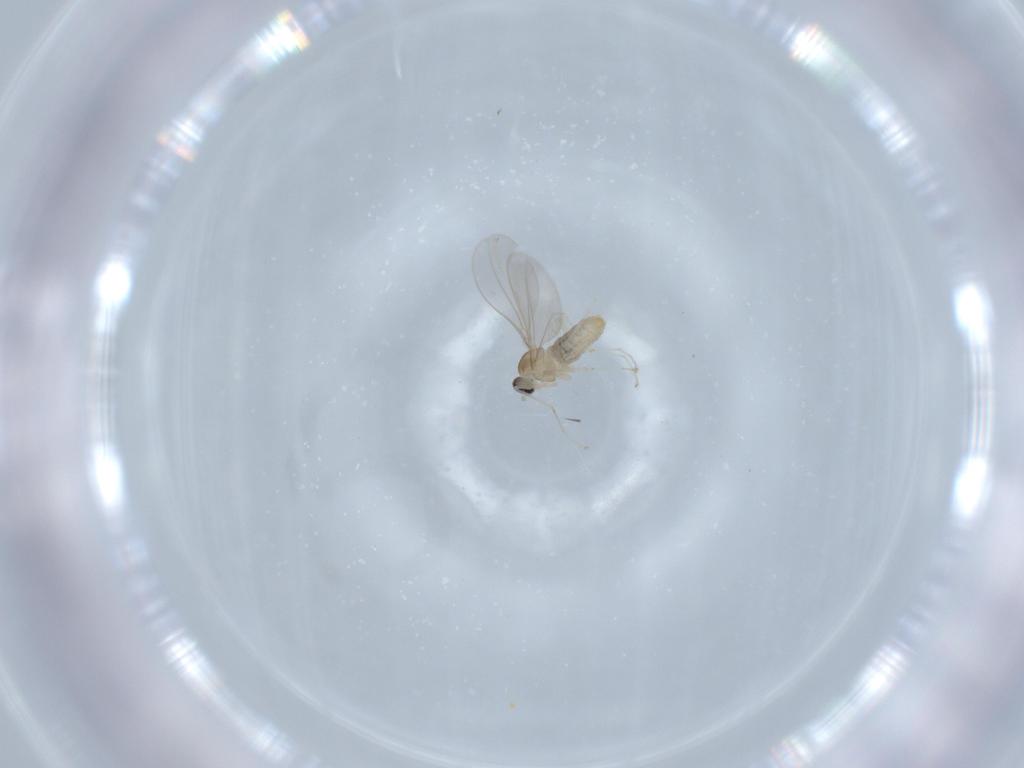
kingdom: Animalia
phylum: Arthropoda
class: Insecta
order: Diptera
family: Cecidomyiidae
